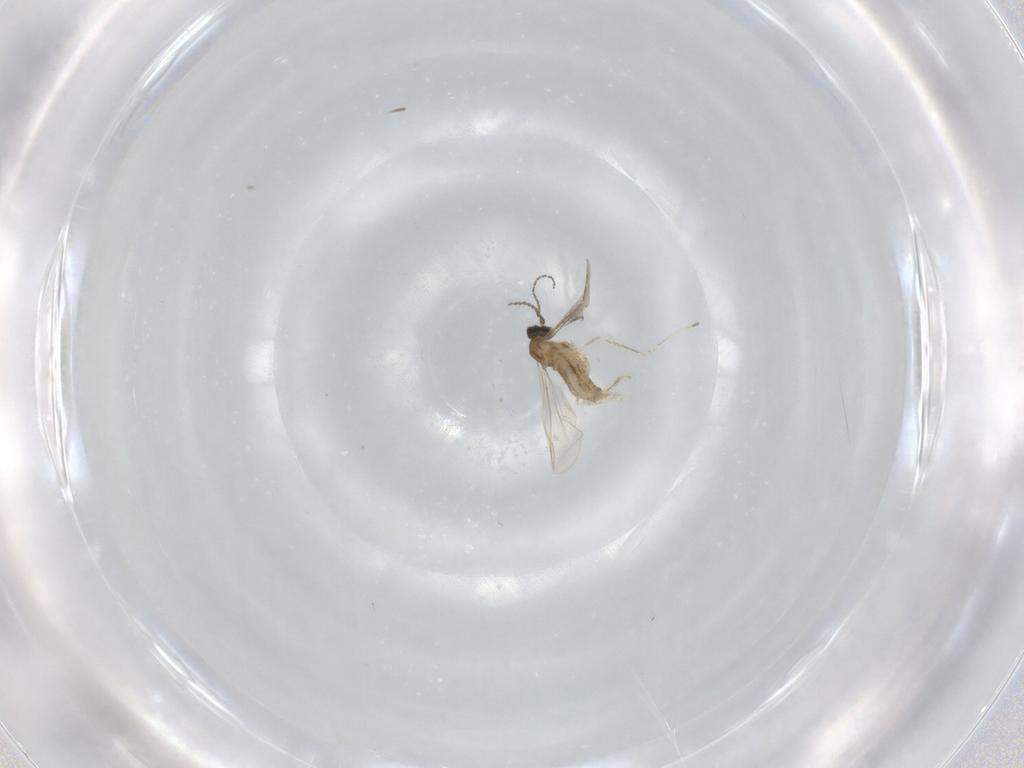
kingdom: Animalia
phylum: Arthropoda
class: Insecta
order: Diptera
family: Cecidomyiidae
